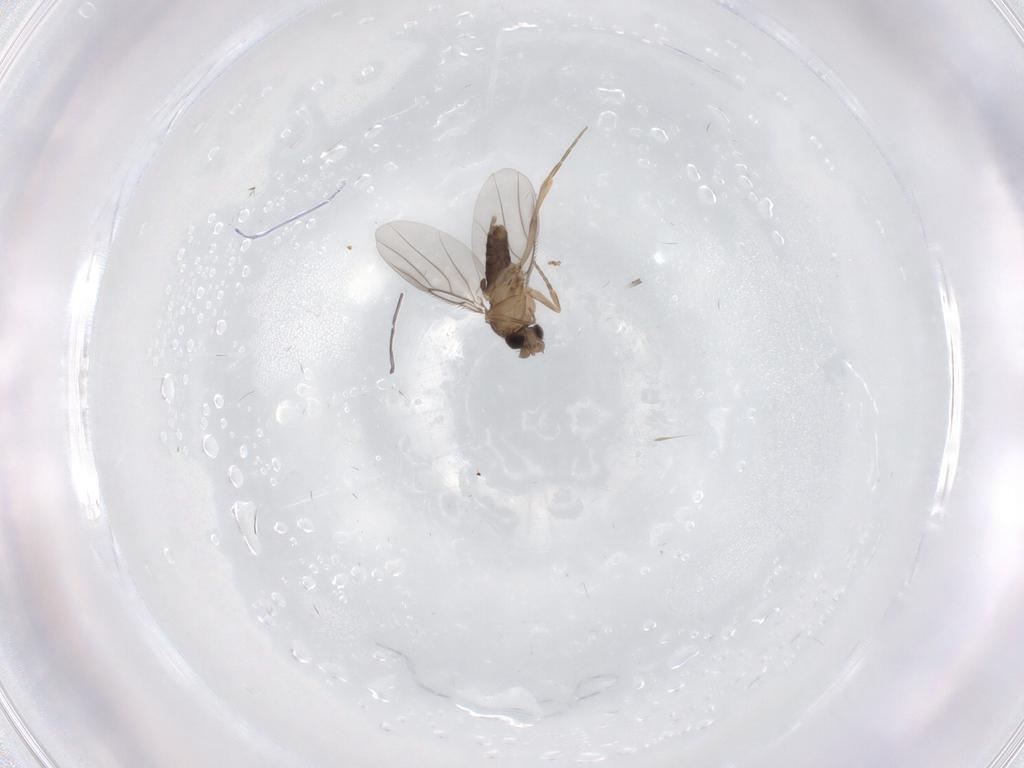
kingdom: Animalia
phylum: Arthropoda
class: Insecta
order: Diptera
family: Phoridae
